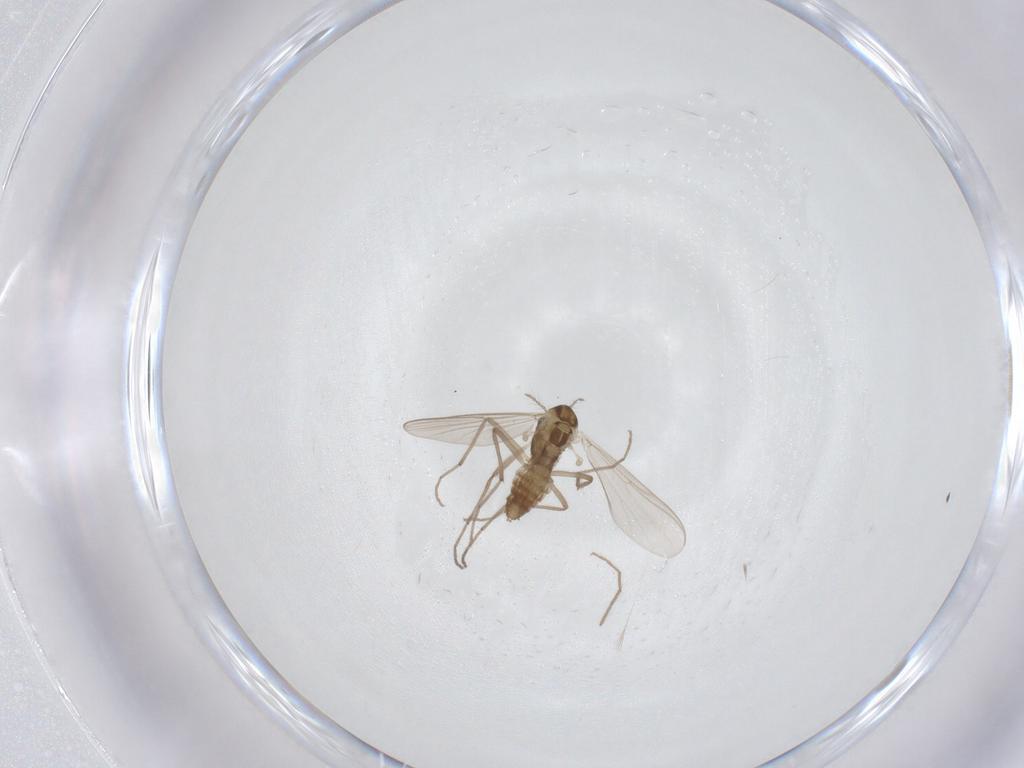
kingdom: Animalia
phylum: Arthropoda
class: Insecta
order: Diptera
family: Chironomidae
